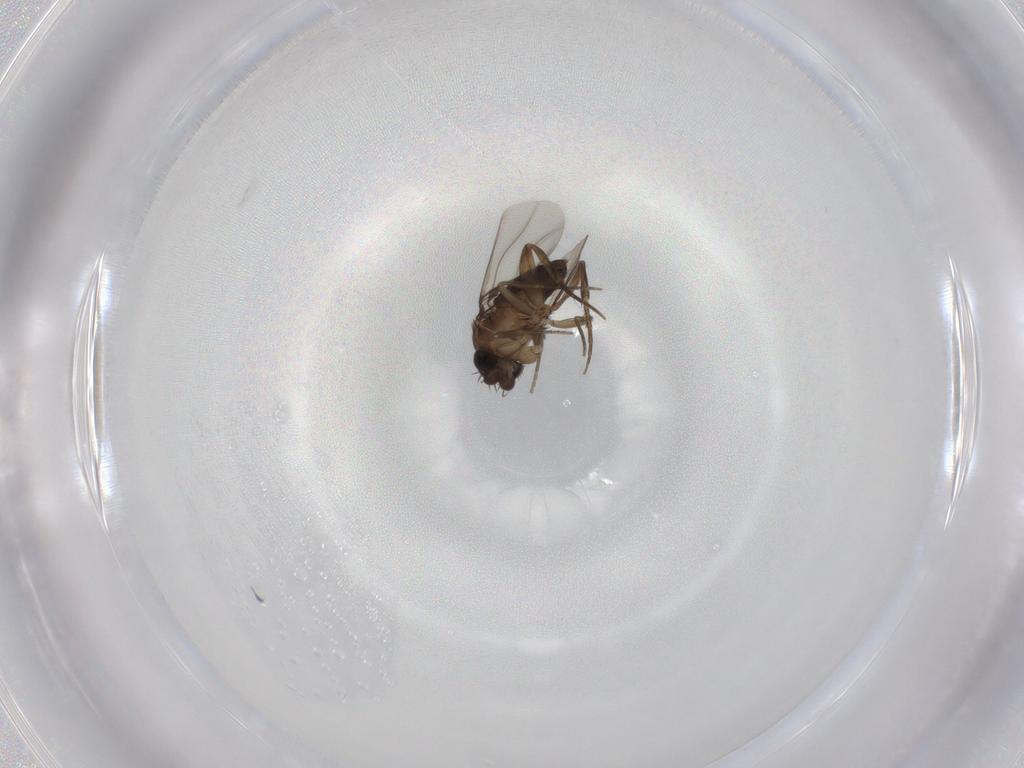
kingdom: Animalia
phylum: Arthropoda
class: Insecta
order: Diptera
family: Phoridae
